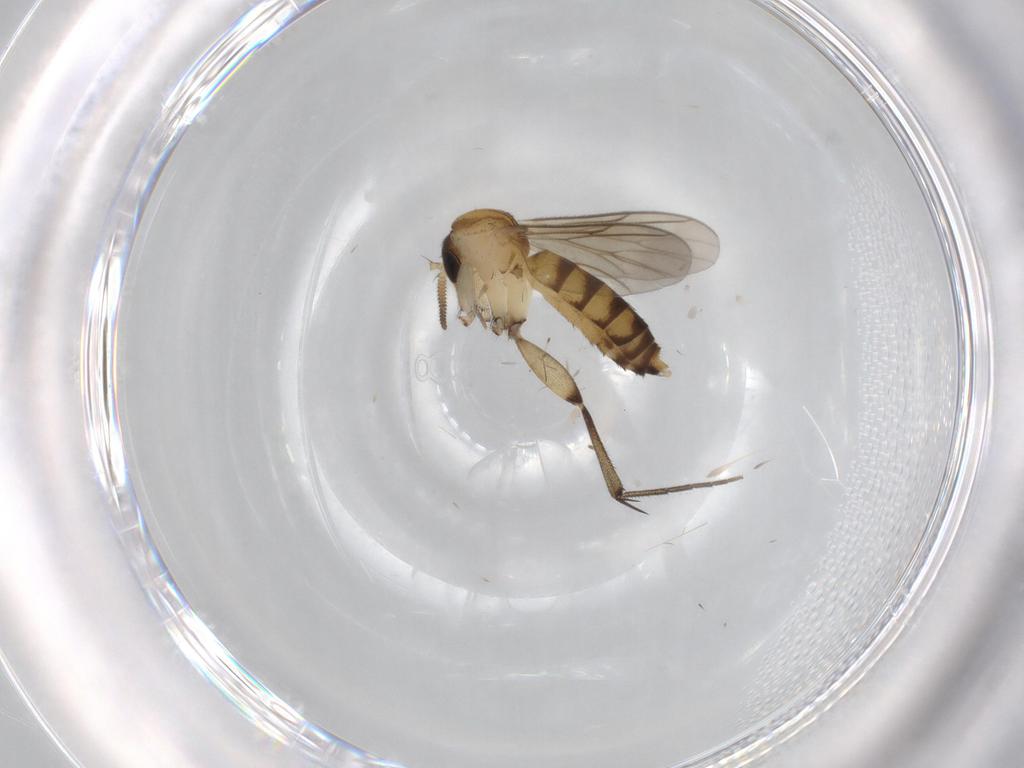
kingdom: Animalia
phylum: Arthropoda
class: Insecta
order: Diptera
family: Mycetophilidae
